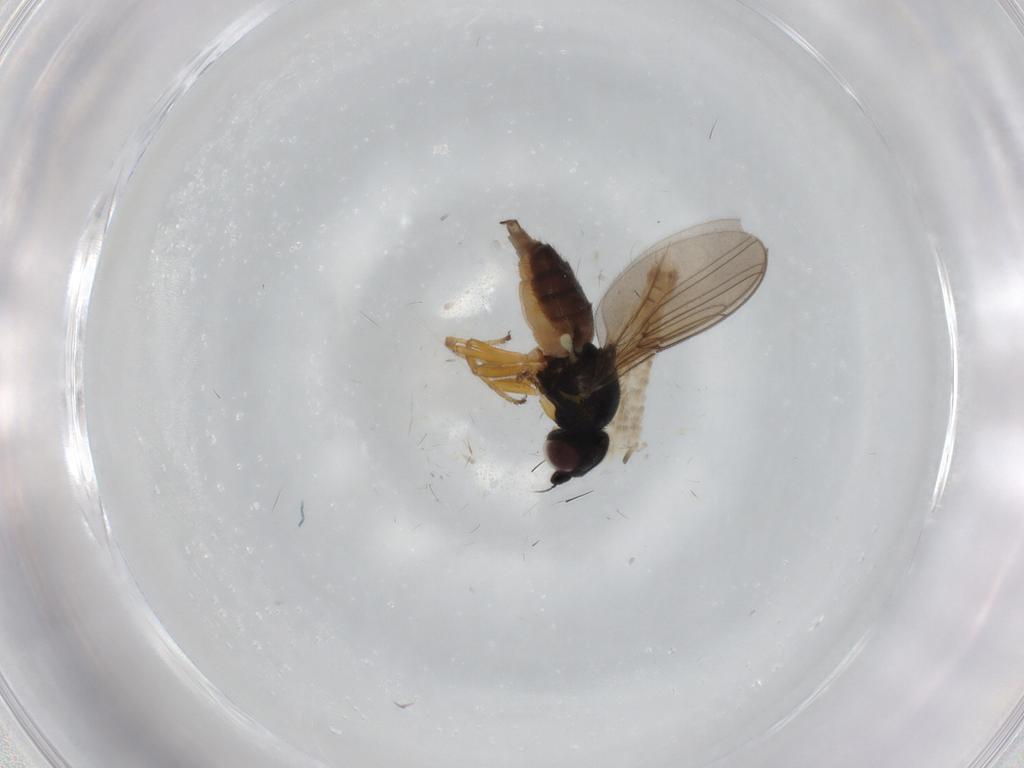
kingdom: Animalia
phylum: Arthropoda
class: Insecta
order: Diptera
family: Chloropidae
